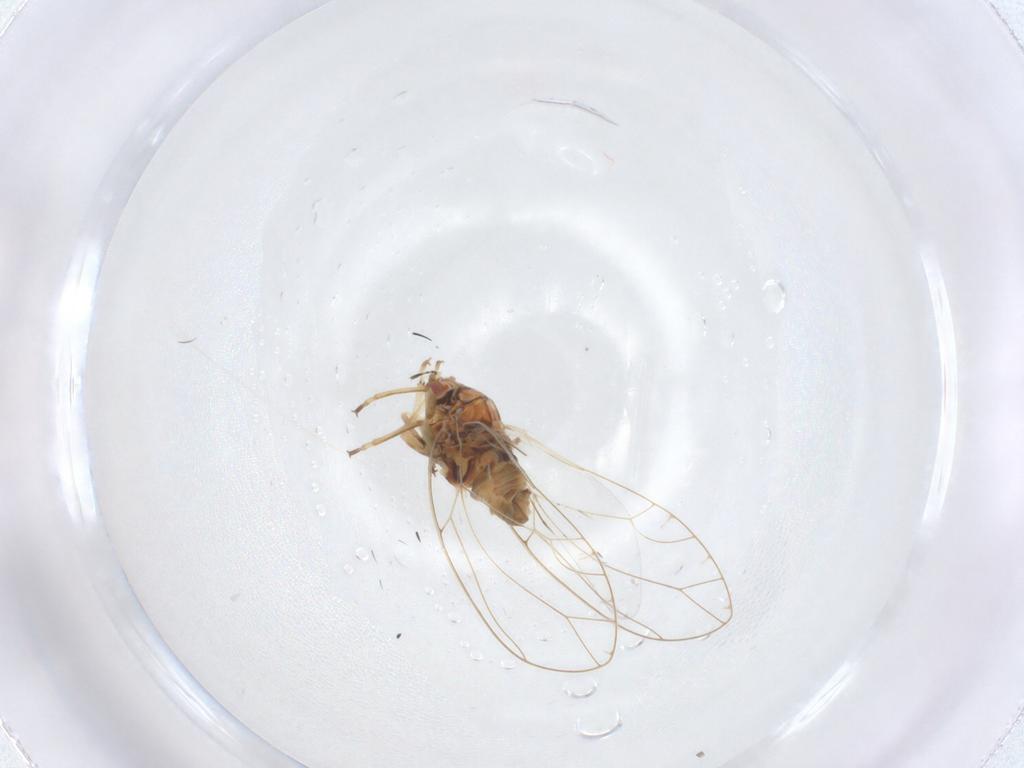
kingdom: Animalia
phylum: Arthropoda
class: Insecta
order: Hemiptera
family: Triozidae
